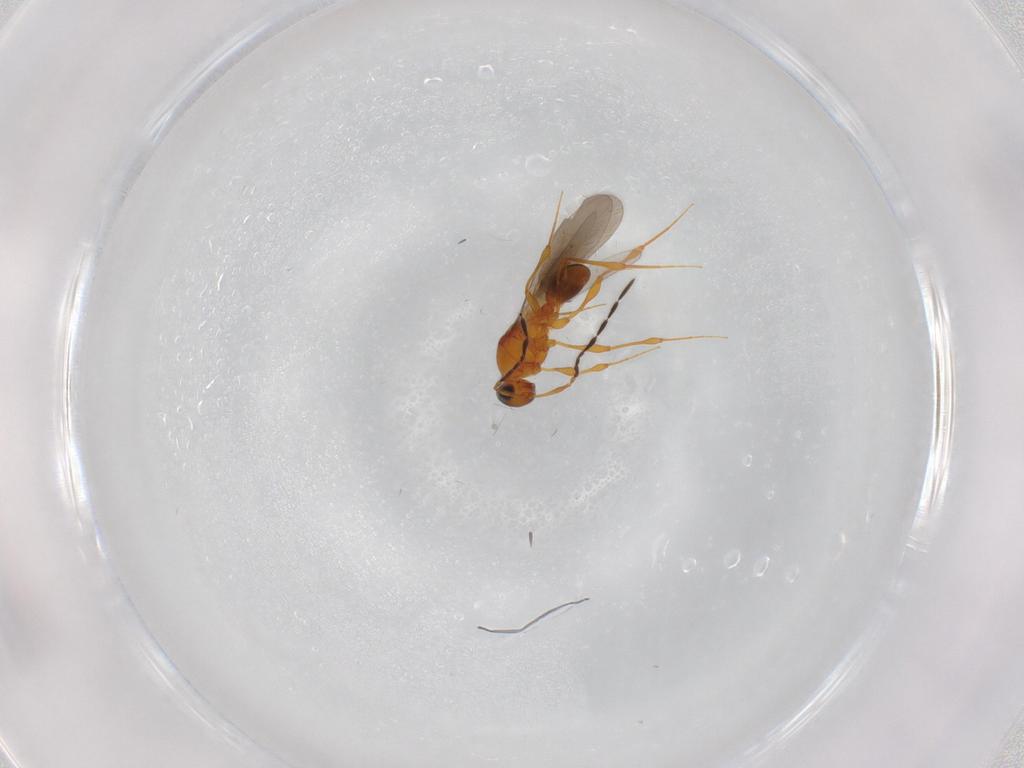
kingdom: Animalia
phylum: Arthropoda
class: Insecta
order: Hymenoptera
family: Platygastridae
